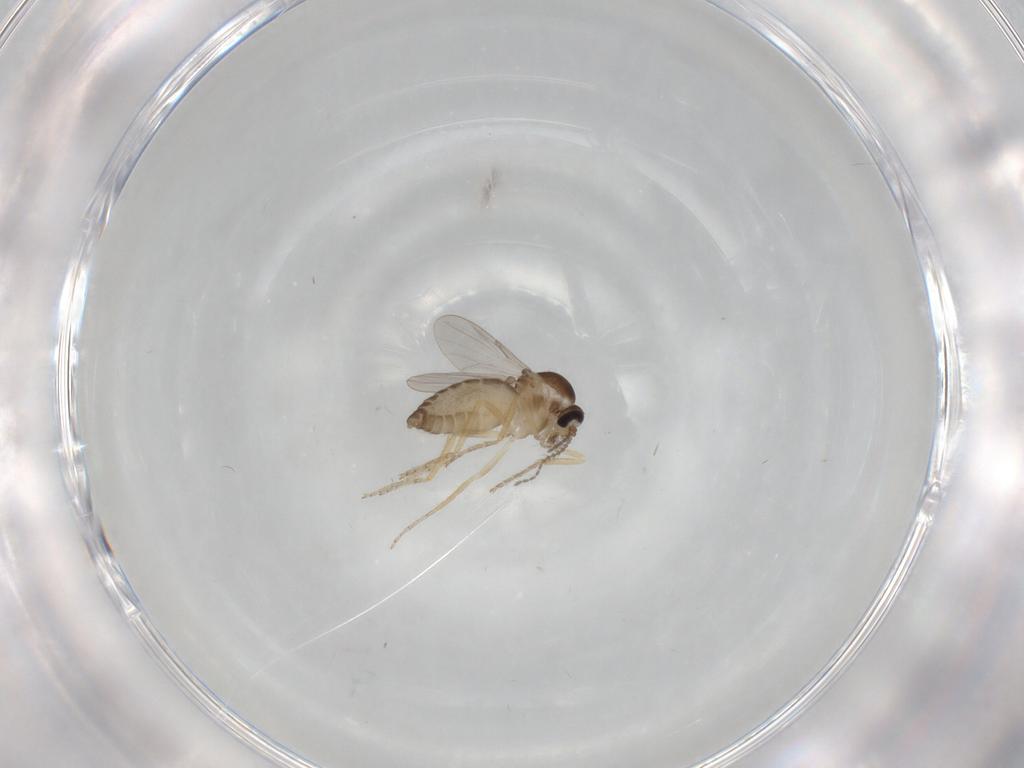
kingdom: Animalia
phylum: Arthropoda
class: Insecta
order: Diptera
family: Ceratopogonidae
